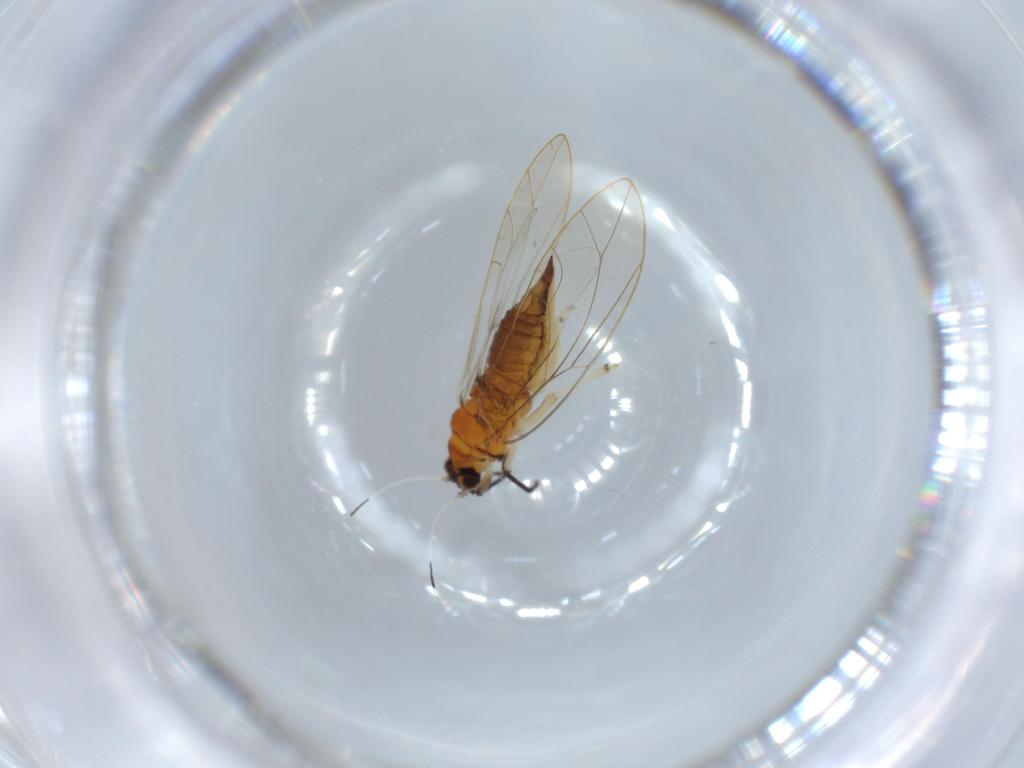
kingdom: Animalia
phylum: Arthropoda
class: Insecta
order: Hemiptera
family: Triozidae
